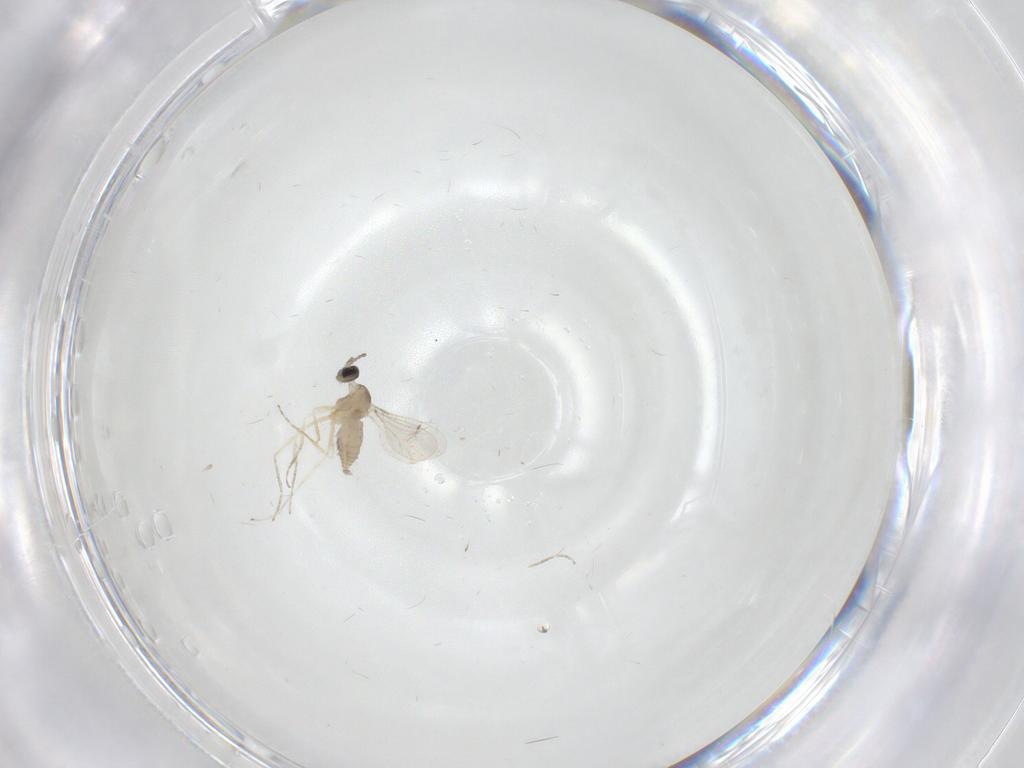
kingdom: Animalia
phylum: Arthropoda
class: Insecta
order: Diptera
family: Cecidomyiidae
